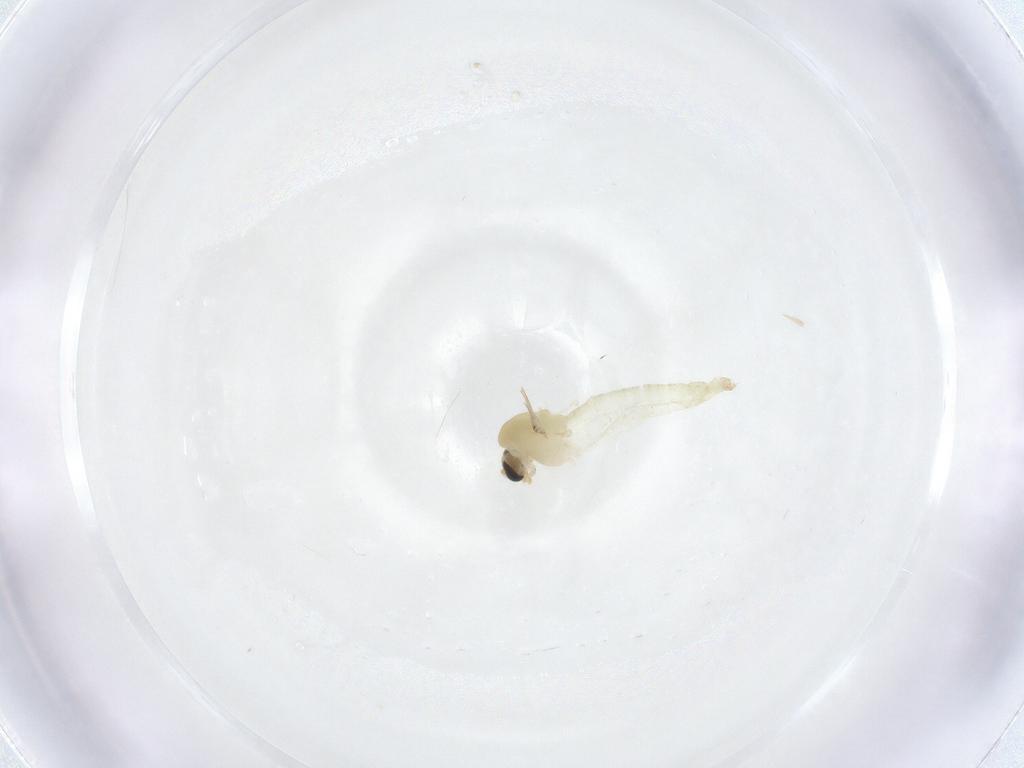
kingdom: Animalia
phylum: Arthropoda
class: Insecta
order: Diptera
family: Chironomidae
